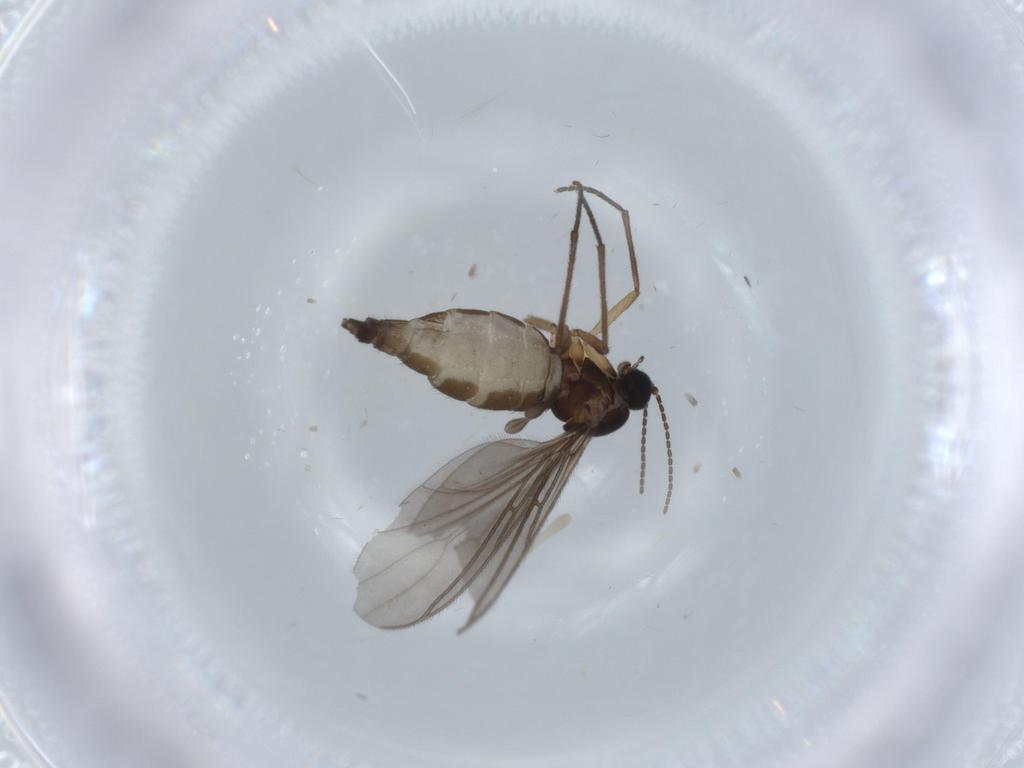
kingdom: Animalia
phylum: Arthropoda
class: Insecta
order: Diptera
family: Sciaridae
